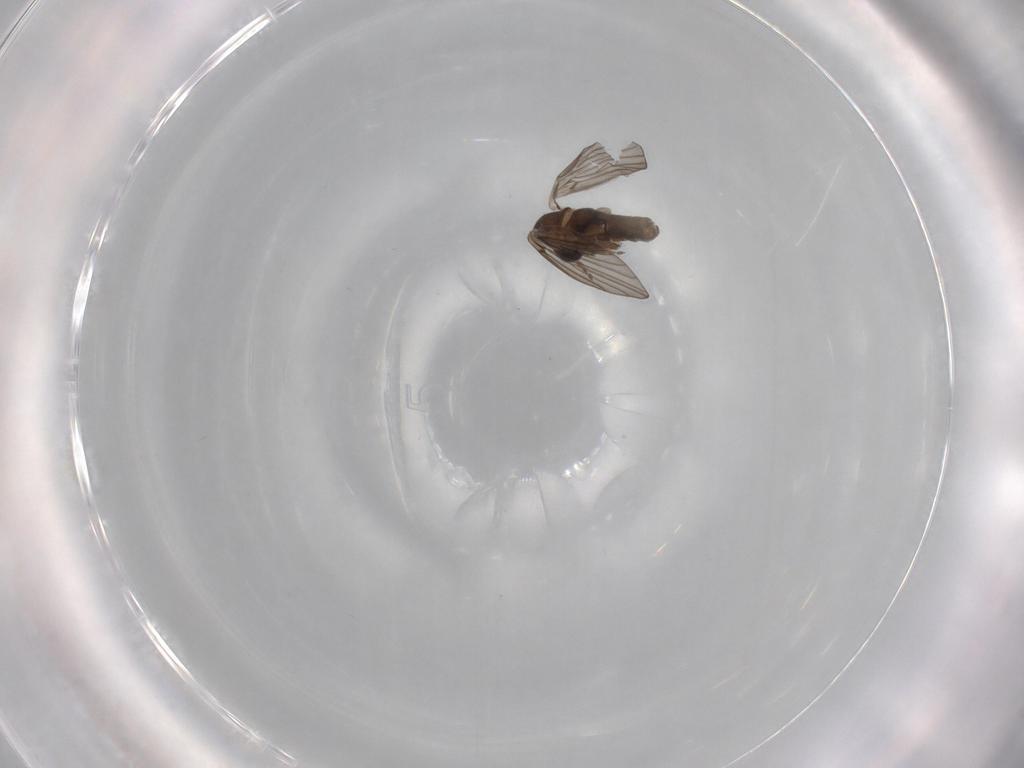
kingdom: Animalia
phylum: Arthropoda
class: Insecta
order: Diptera
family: Psychodidae
